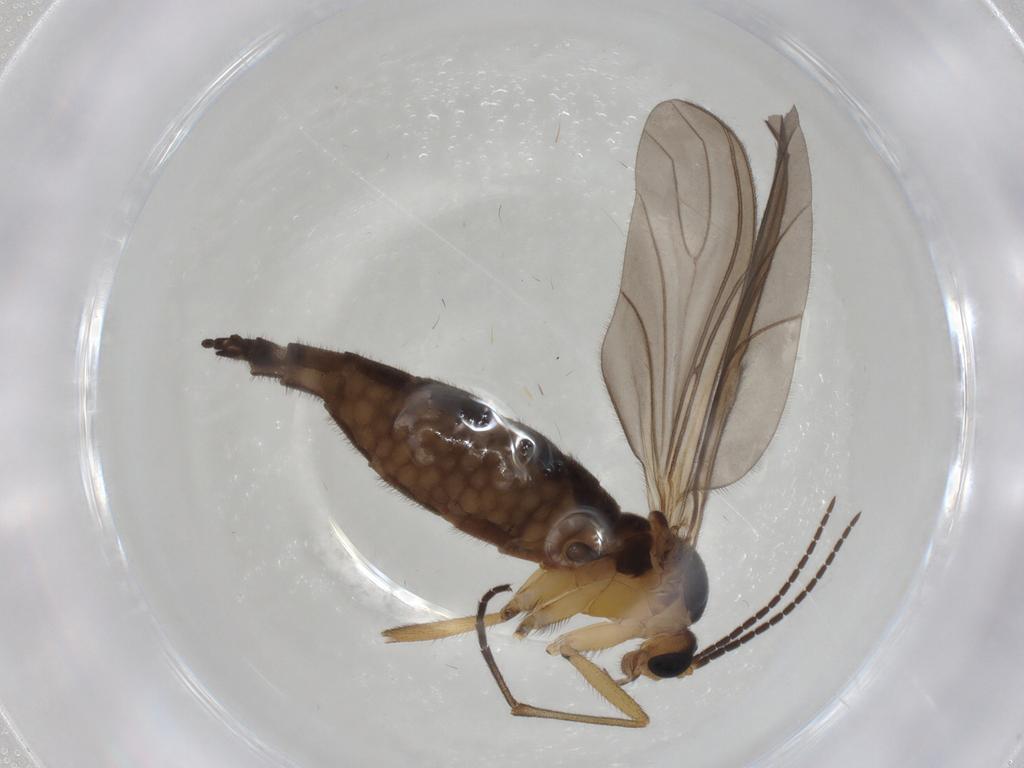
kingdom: Animalia
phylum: Arthropoda
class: Insecta
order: Diptera
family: Sciaridae
